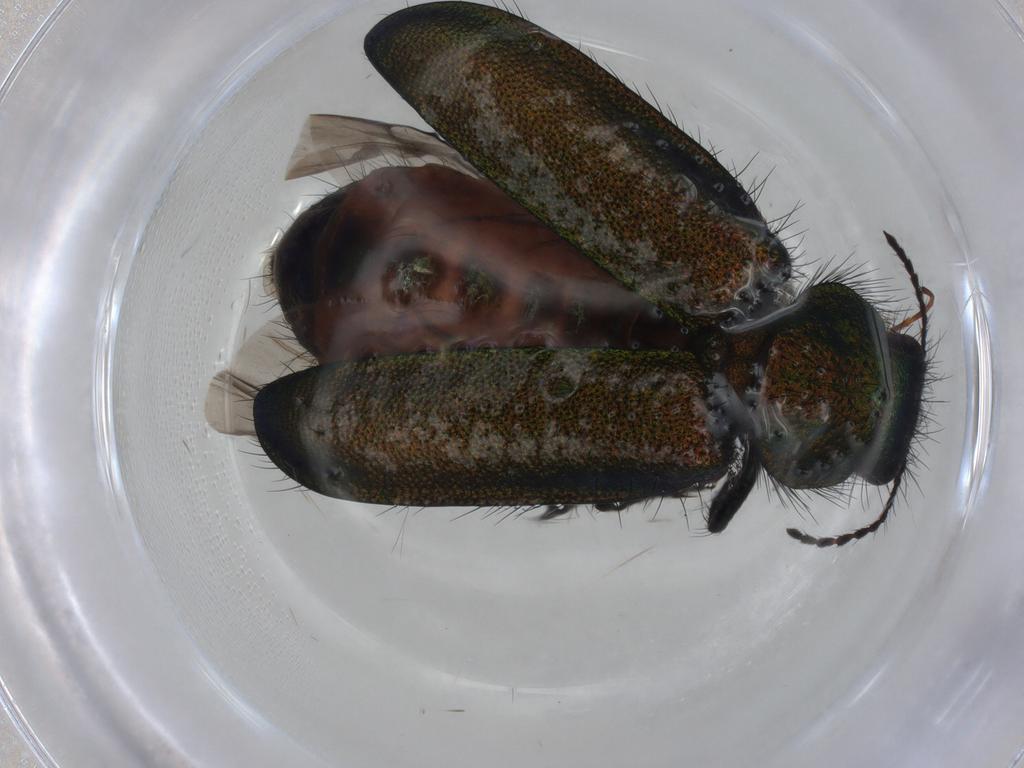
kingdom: Animalia
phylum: Arthropoda
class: Insecta
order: Coleoptera
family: Melyridae
